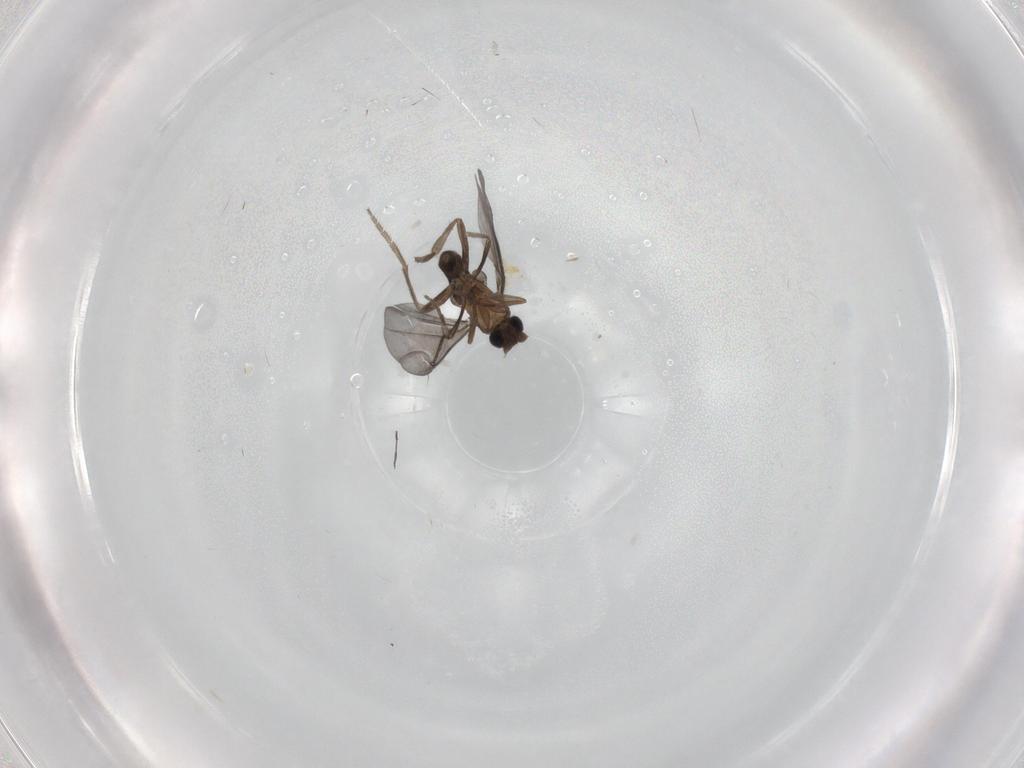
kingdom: Animalia
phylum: Arthropoda
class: Insecta
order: Diptera
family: Phoridae
